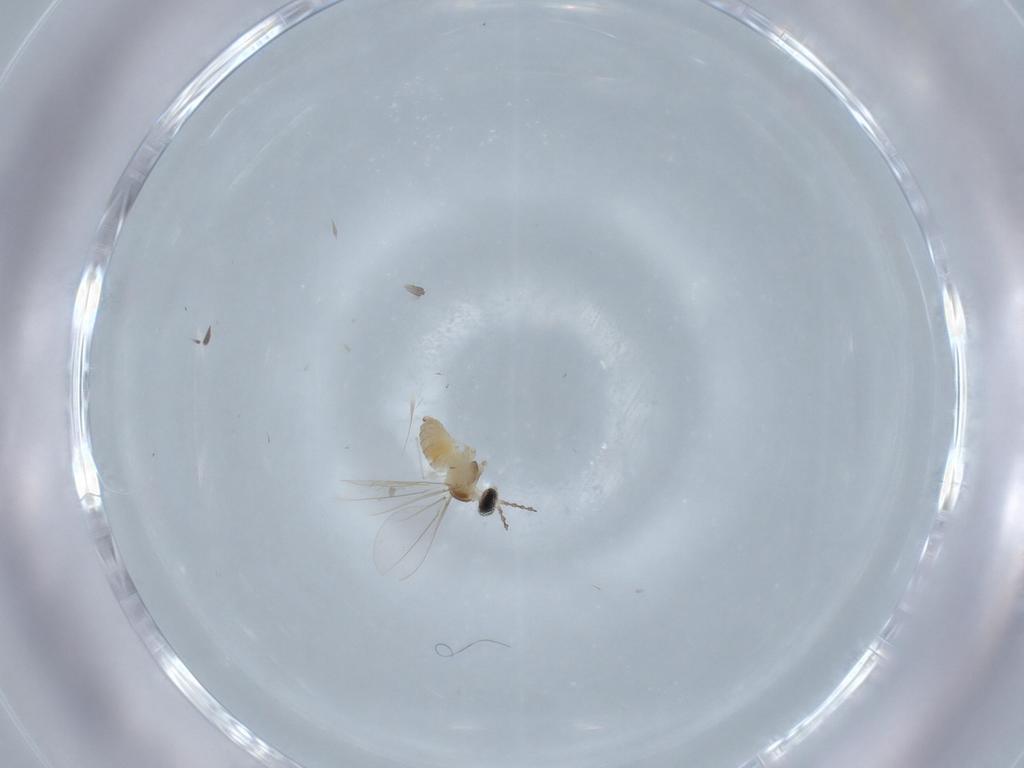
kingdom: Animalia
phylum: Arthropoda
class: Insecta
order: Diptera
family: Cecidomyiidae
